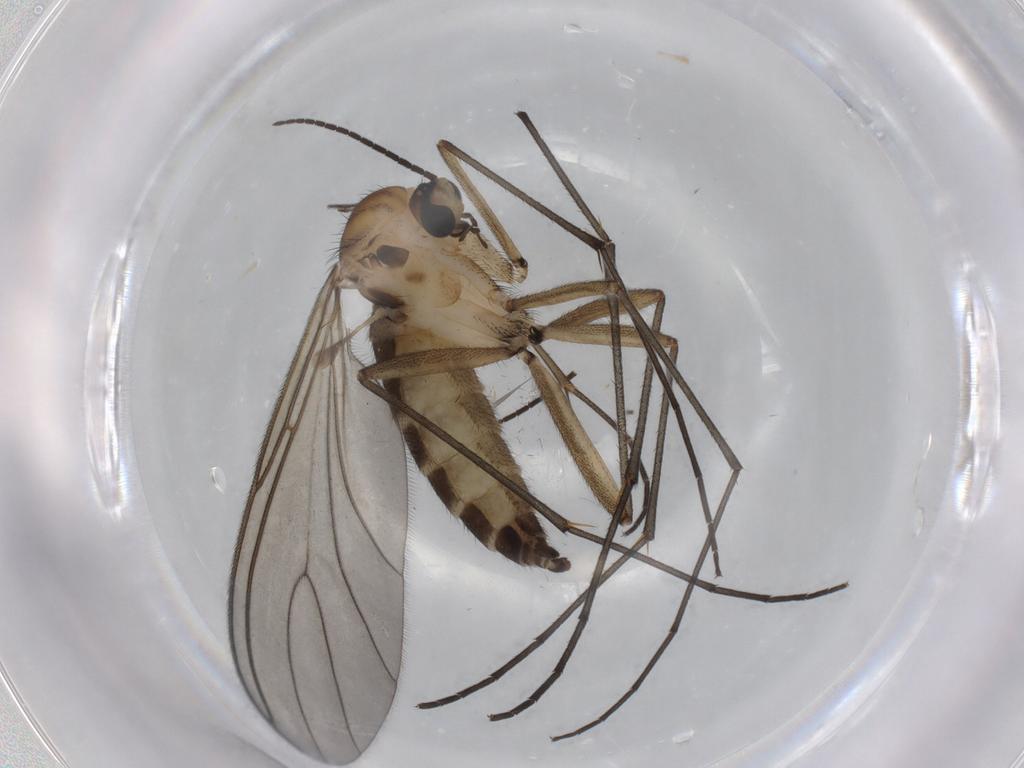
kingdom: Animalia
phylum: Arthropoda
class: Insecta
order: Diptera
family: Sciaridae
